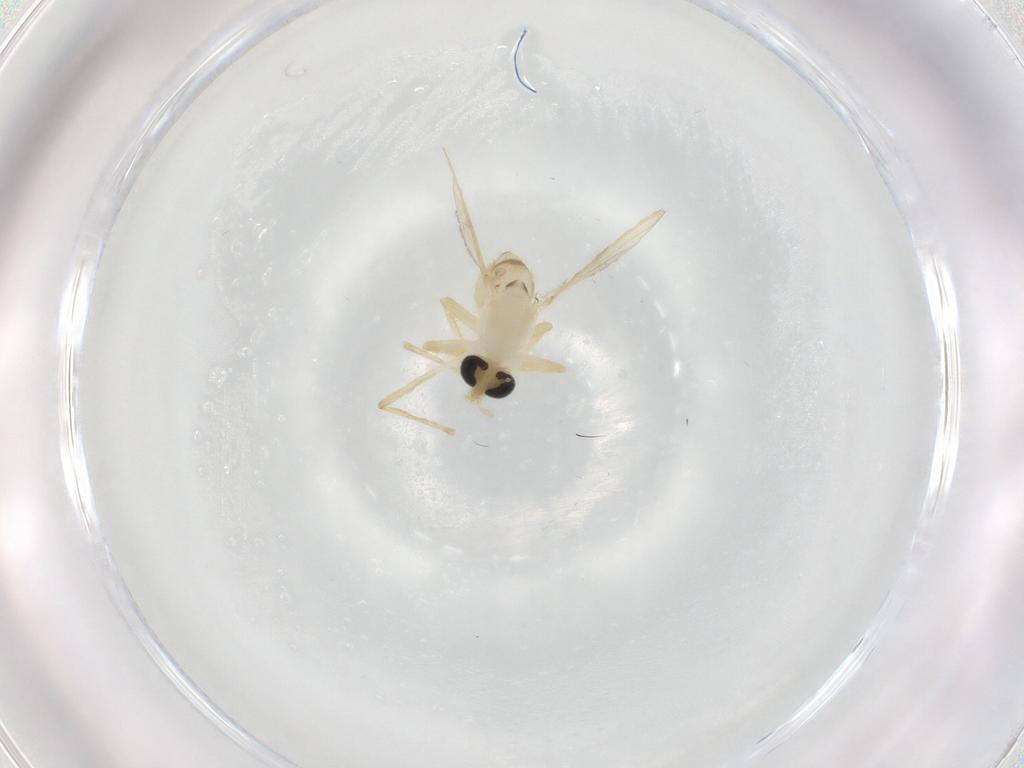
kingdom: Animalia
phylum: Arthropoda
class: Insecta
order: Diptera
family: Chironomidae
